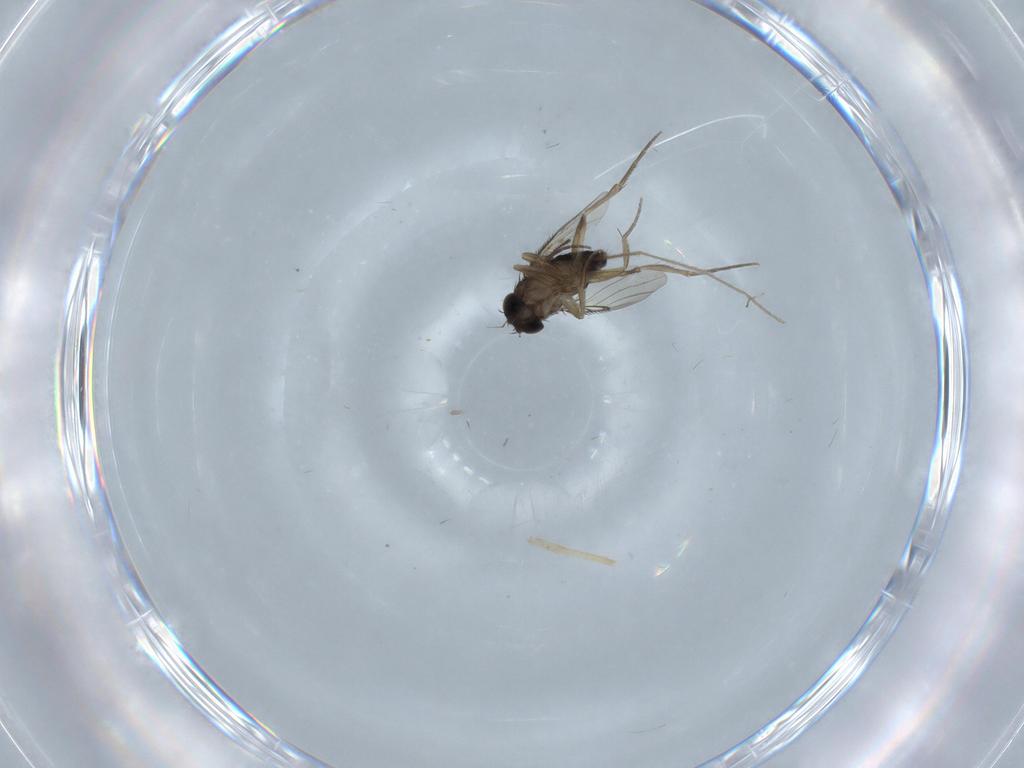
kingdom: Animalia
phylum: Arthropoda
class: Insecta
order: Diptera
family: Phoridae
